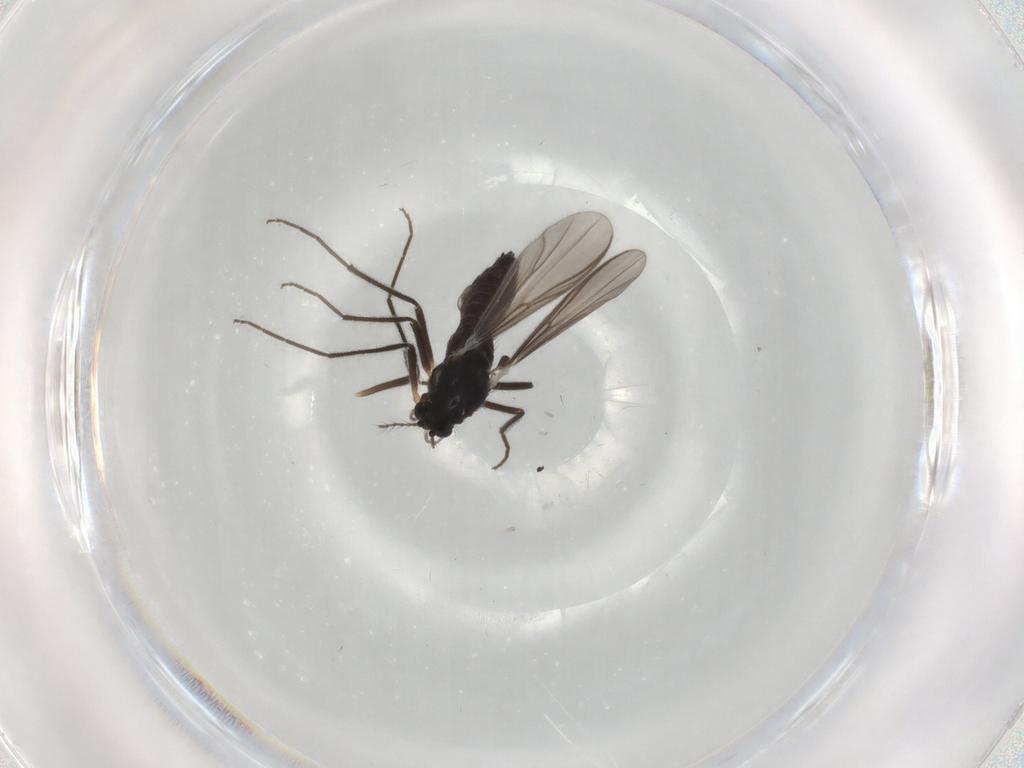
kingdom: Animalia
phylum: Arthropoda
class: Insecta
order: Diptera
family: Chironomidae
